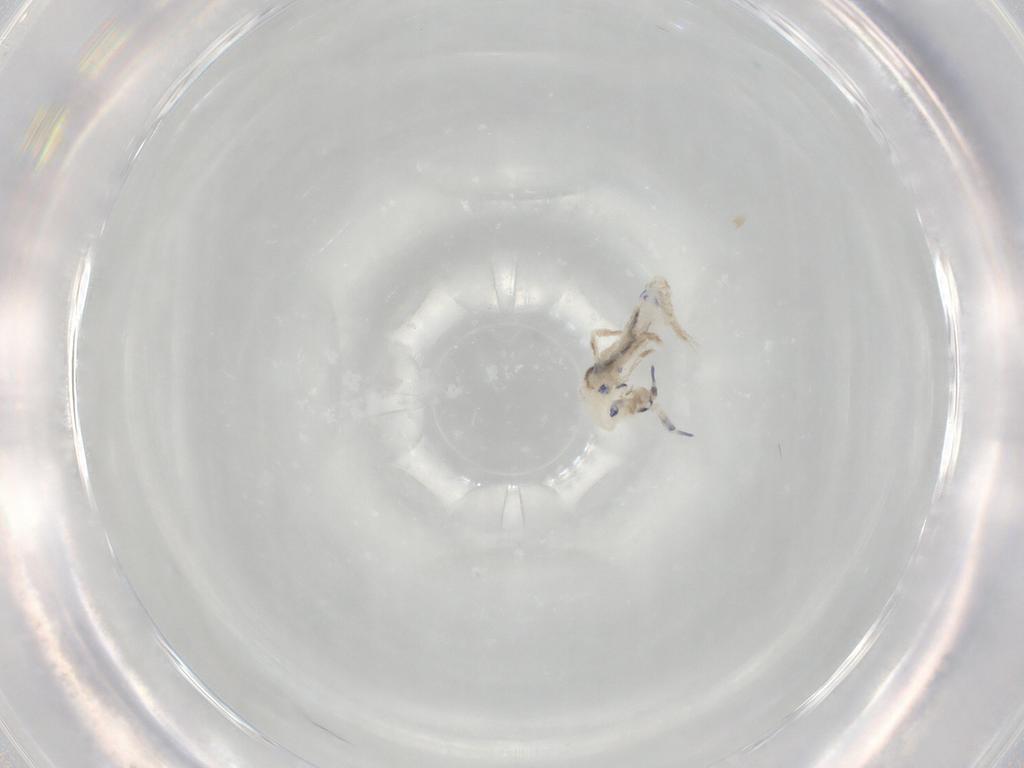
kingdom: Animalia
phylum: Arthropoda
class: Collembola
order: Entomobryomorpha
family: Entomobryidae
